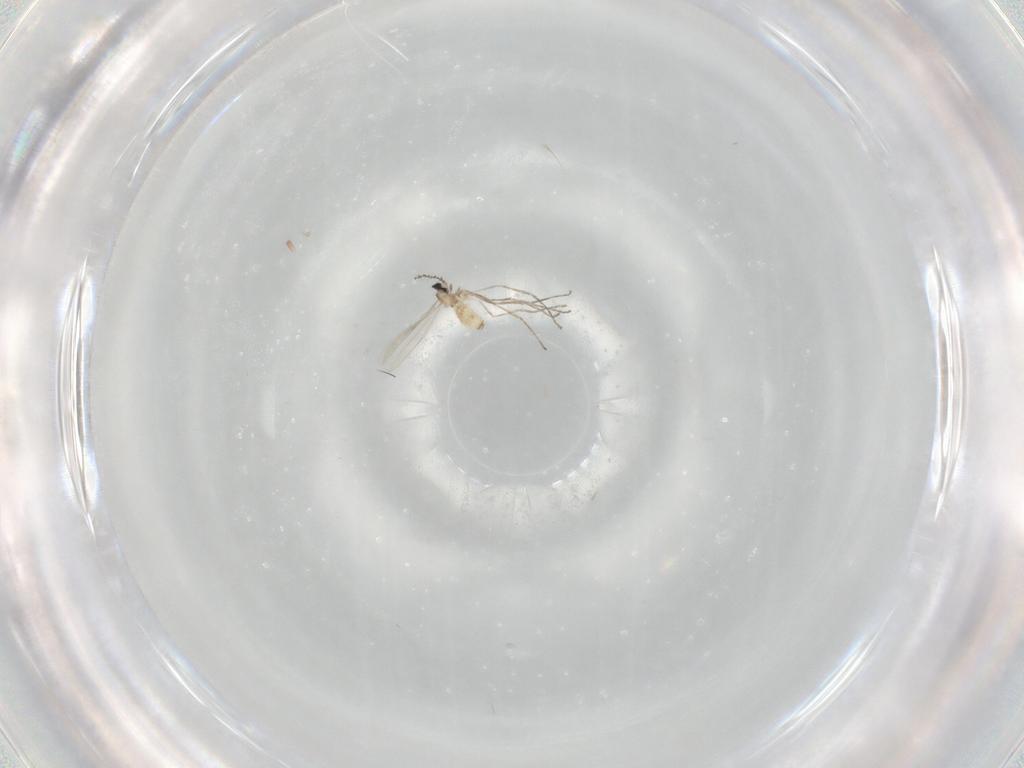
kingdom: Animalia
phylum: Arthropoda
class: Insecta
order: Diptera
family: Cecidomyiidae
